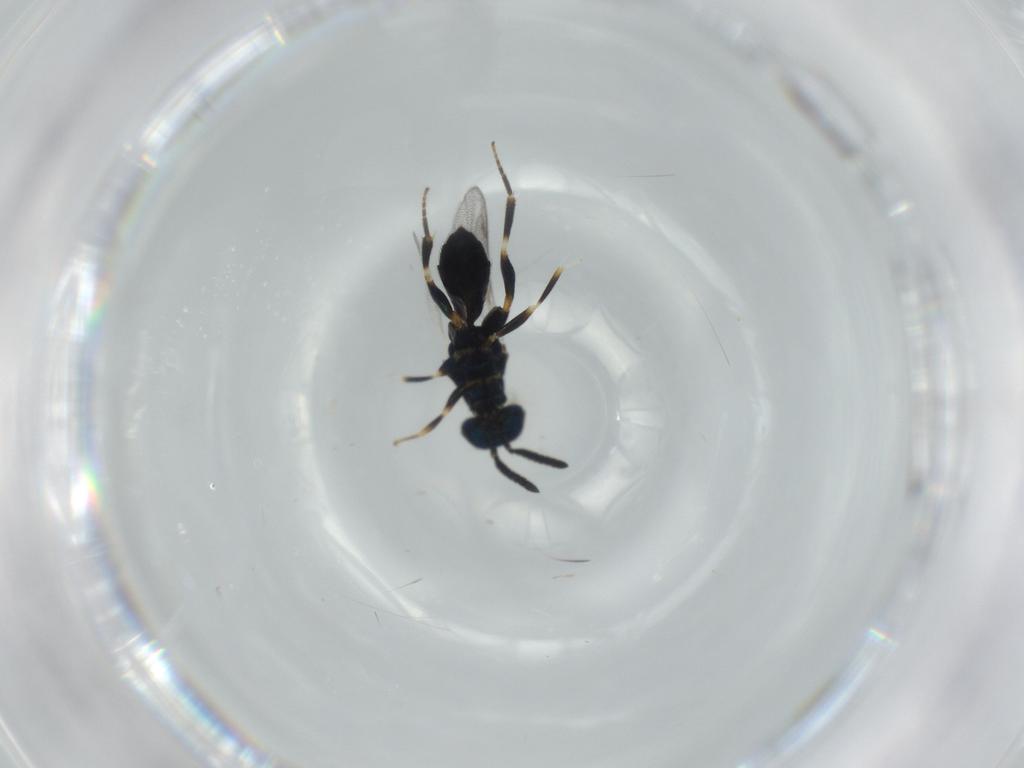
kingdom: Animalia
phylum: Arthropoda
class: Insecta
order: Hymenoptera
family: Cleonyminae
